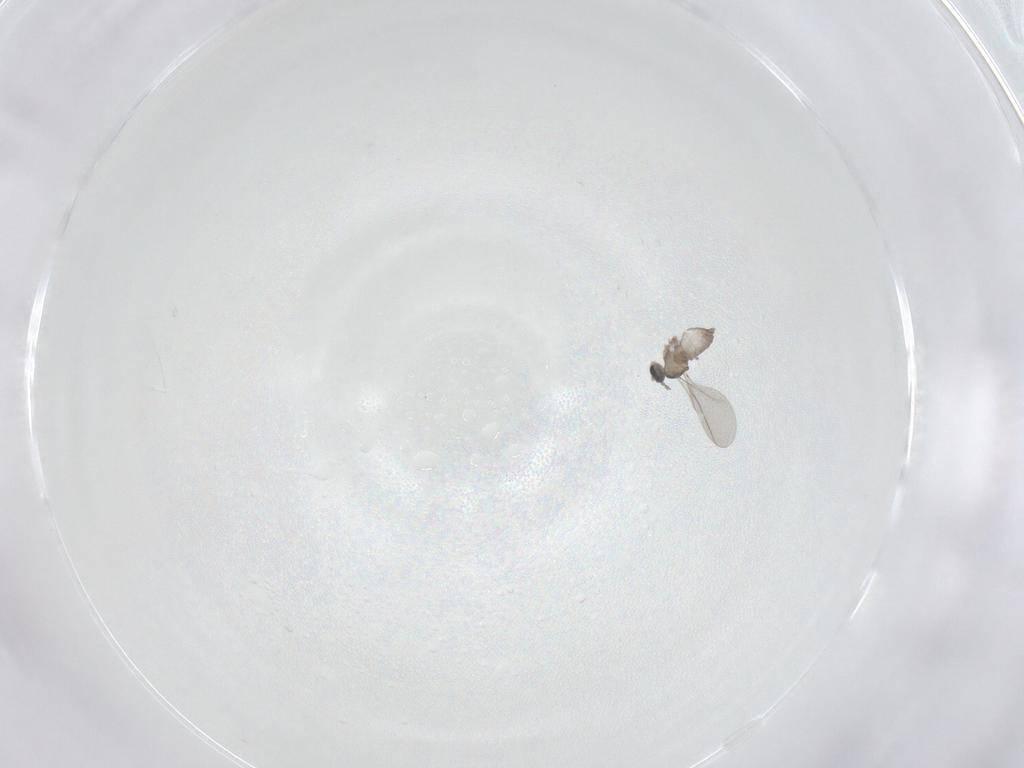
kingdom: Animalia
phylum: Arthropoda
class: Insecta
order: Diptera
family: Cecidomyiidae
